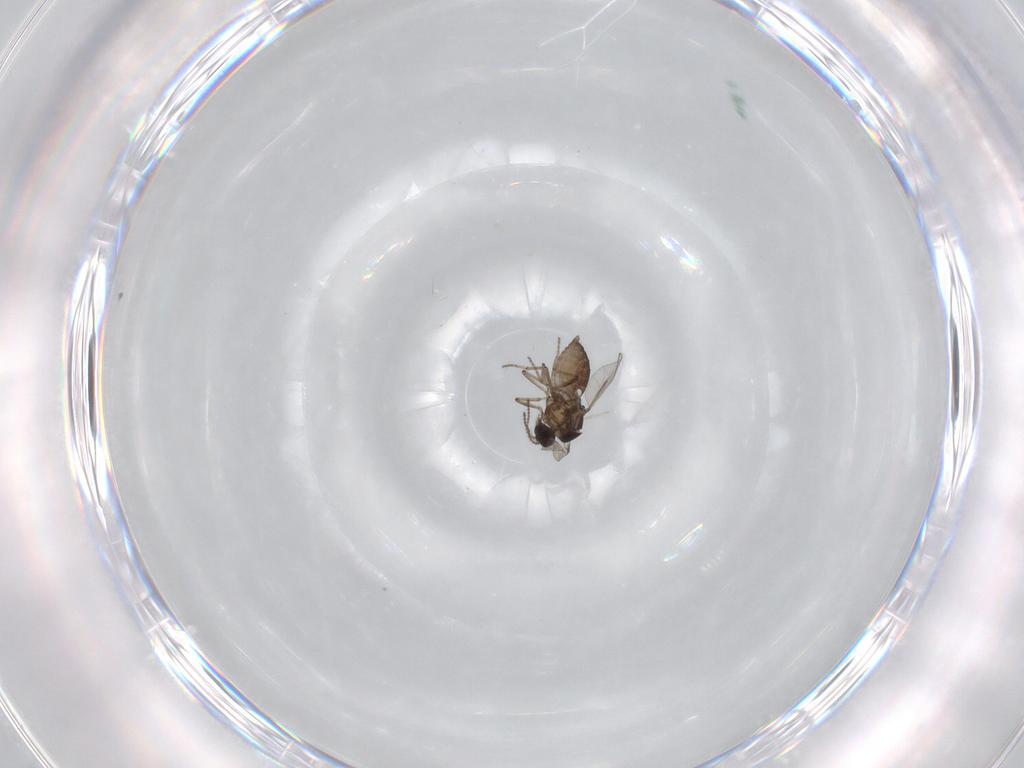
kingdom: Animalia
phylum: Arthropoda
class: Insecta
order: Diptera
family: Ceratopogonidae
